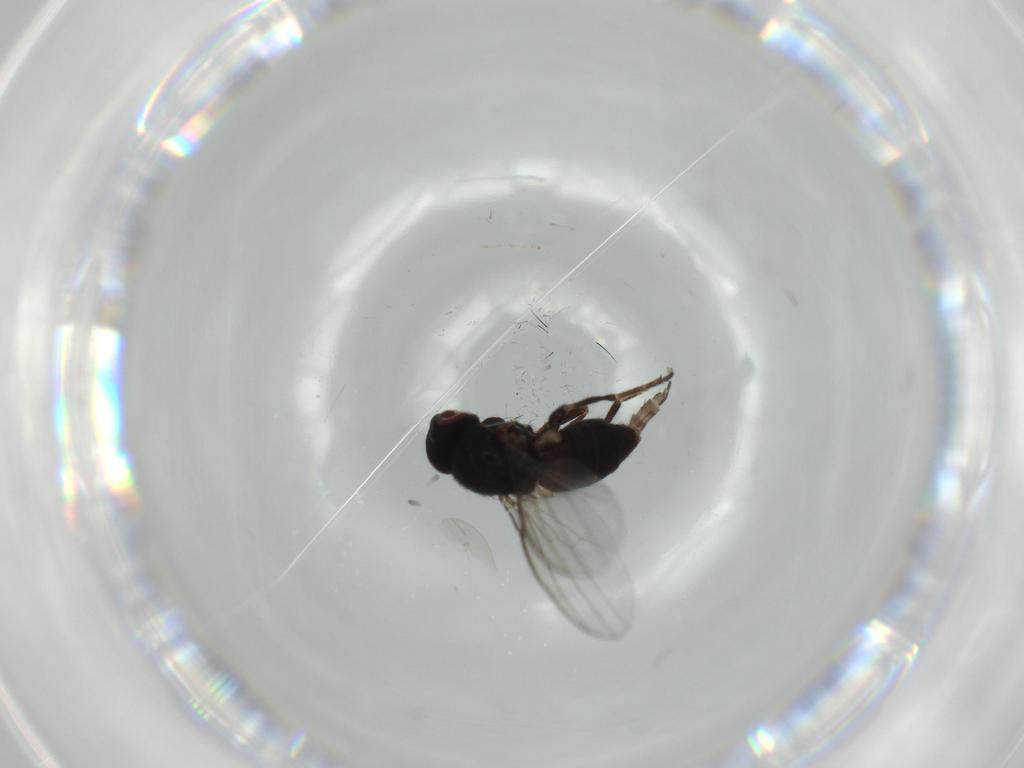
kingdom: Animalia
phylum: Arthropoda
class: Insecta
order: Diptera
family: Milichiidae
